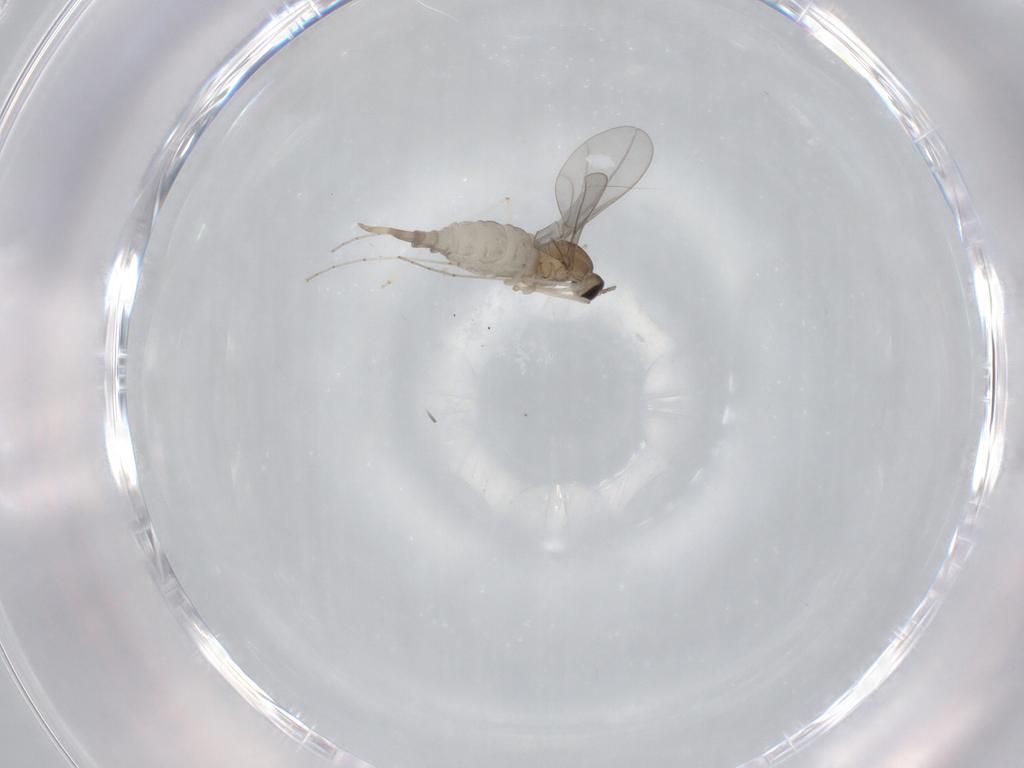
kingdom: Animalia
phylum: Arthropoda
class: Insecta
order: Diptera
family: Cecidomyiidae
